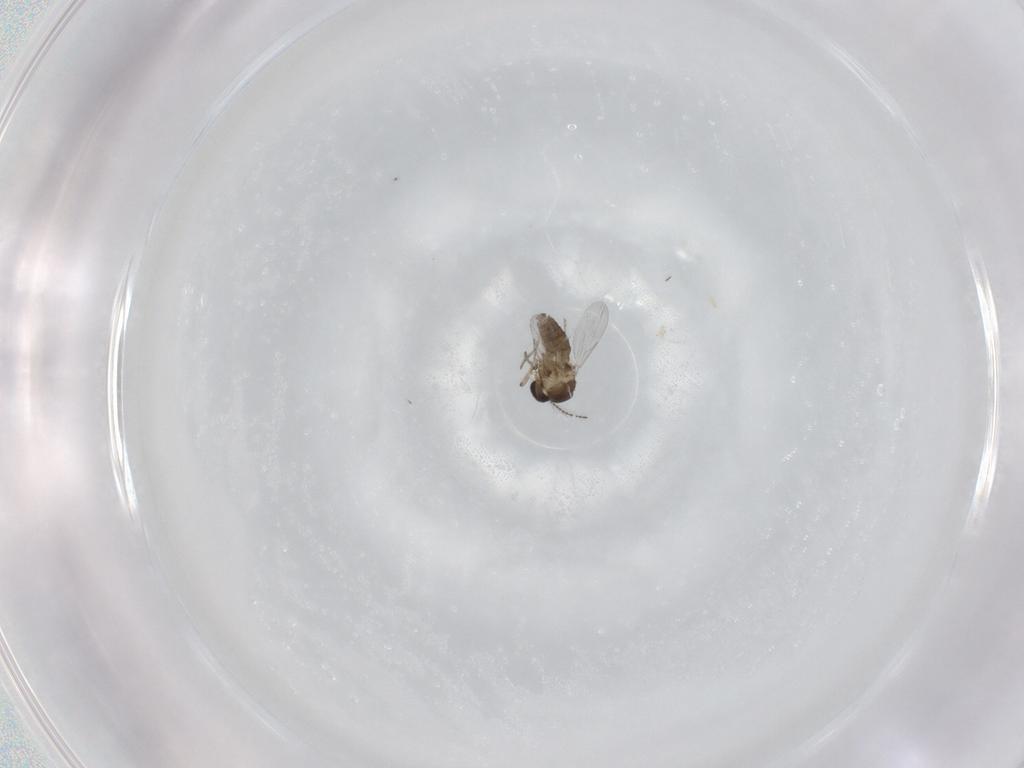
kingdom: Animalia
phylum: Arthropoda
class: Insecta
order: Diptera
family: Ceratopogonidae
